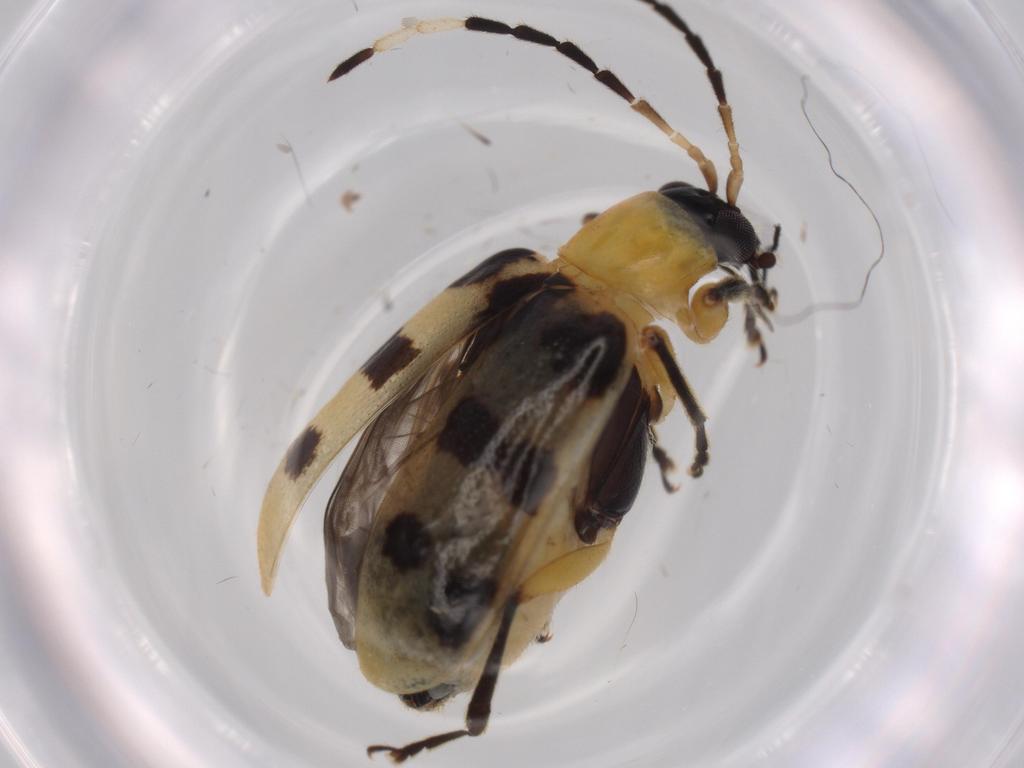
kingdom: Animalia
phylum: Arthropoda
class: Insecta
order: Coleoptera
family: Chrysomelidae
